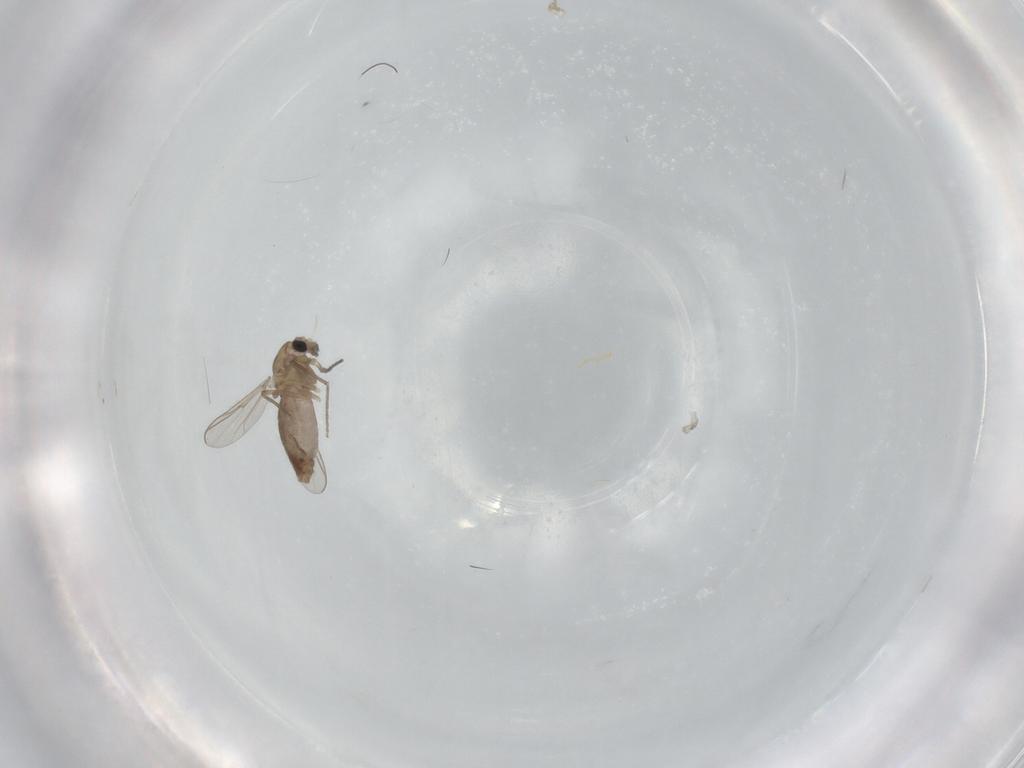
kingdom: Animalia
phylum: Arthropoda
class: Insecta
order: Diptera
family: Chironomidae
